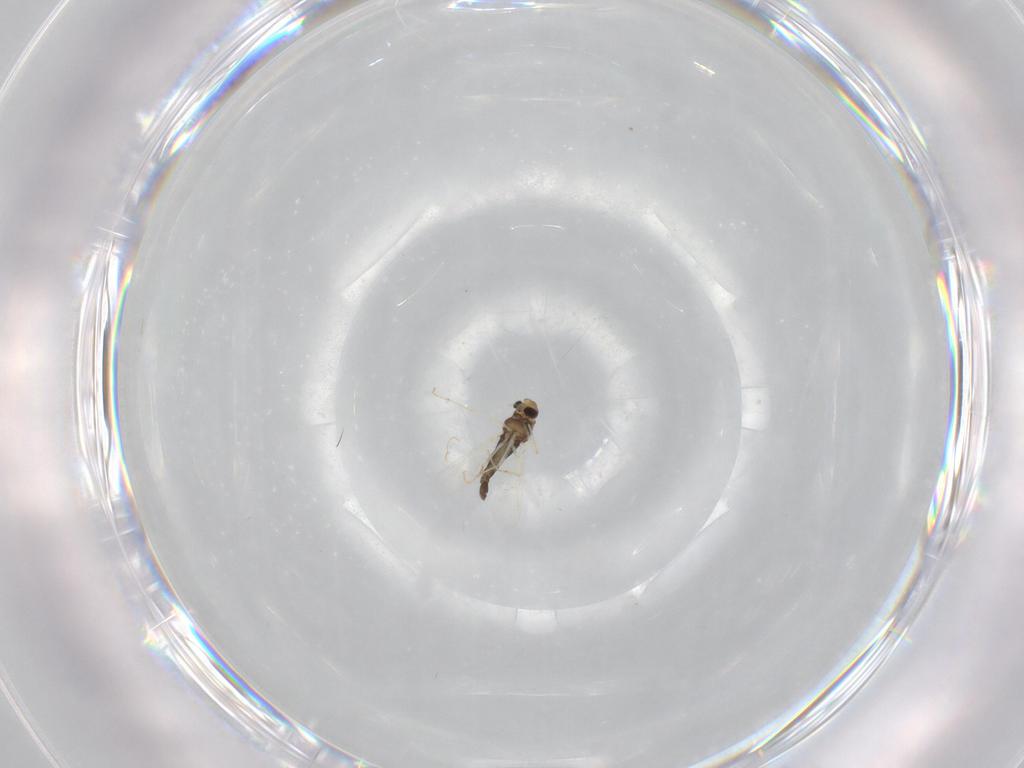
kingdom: Animalia
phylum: Arthropoda
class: Insecta
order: Diptera
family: Chironomidae
